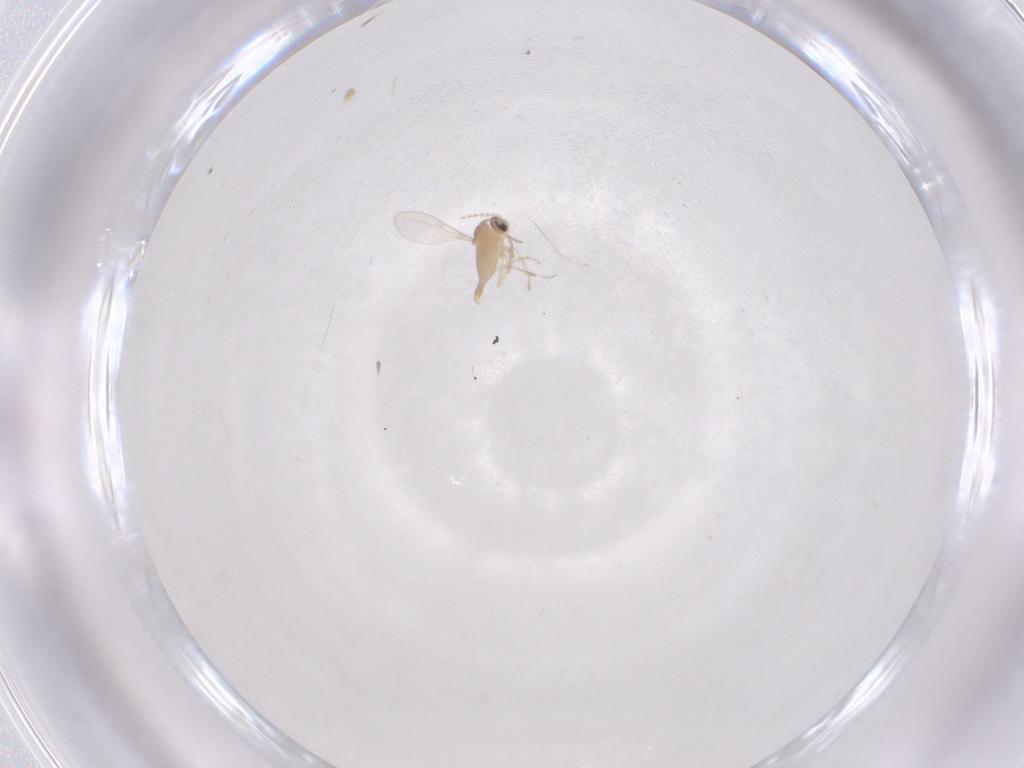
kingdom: Animalia
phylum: Arthropoda
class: Insecta
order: Diptera
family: Cecidomyiidae
